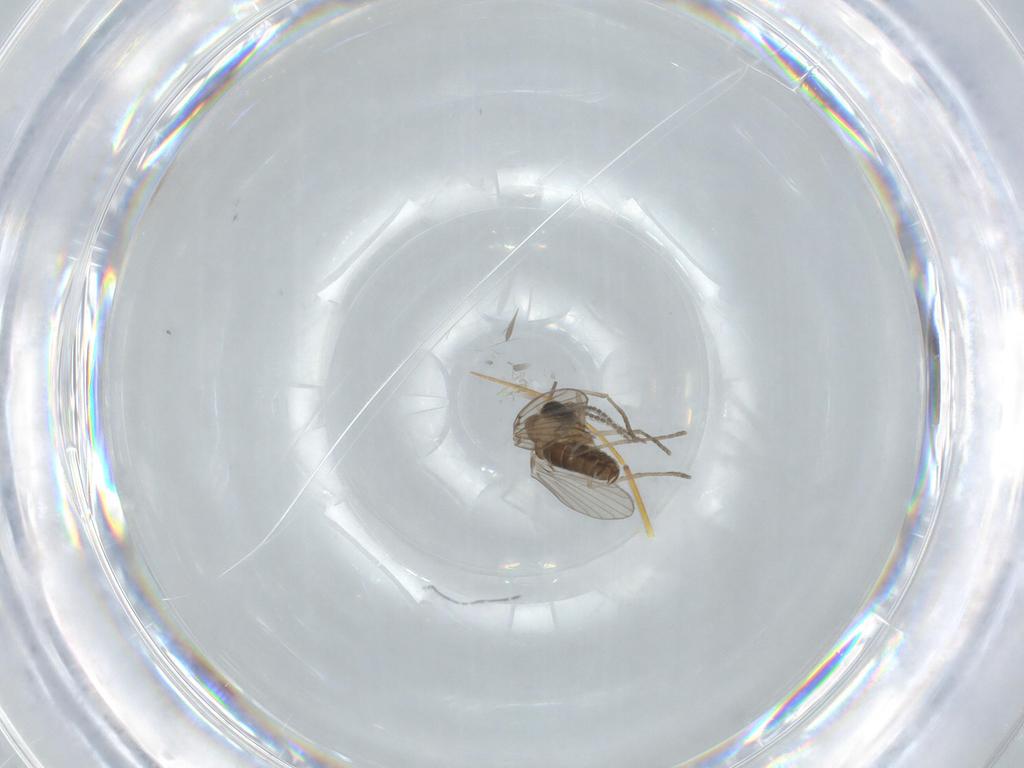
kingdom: Animalia
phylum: Arthropoda
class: Insecta
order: Diptera
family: Psychodidae
